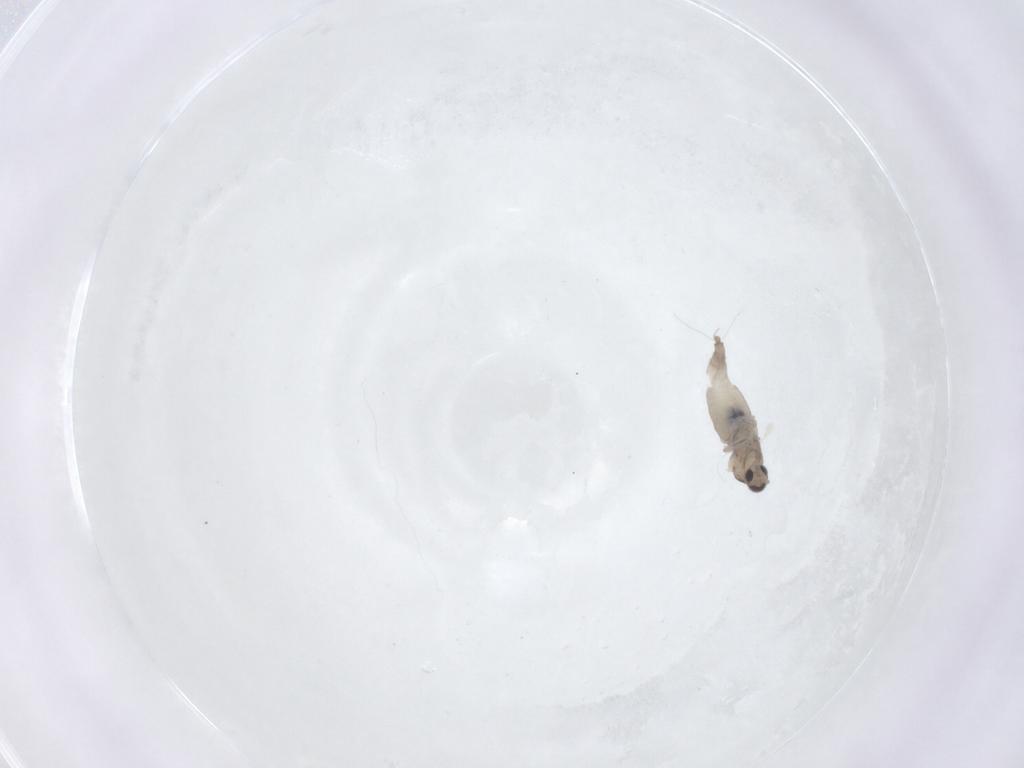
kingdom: Animalia
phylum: Arthropoda
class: Insecta
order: Diptera
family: Cecidomyiidae
